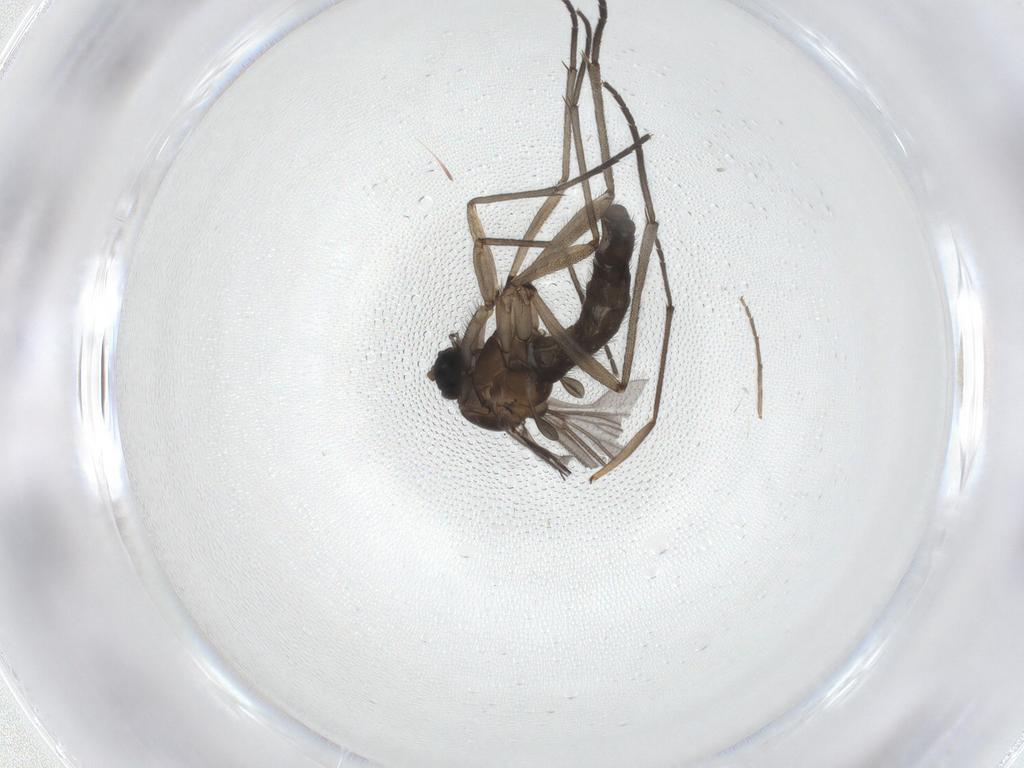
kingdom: Animalia
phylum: Arthropoda
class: Insecta
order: Diptera
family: Sciaridae
